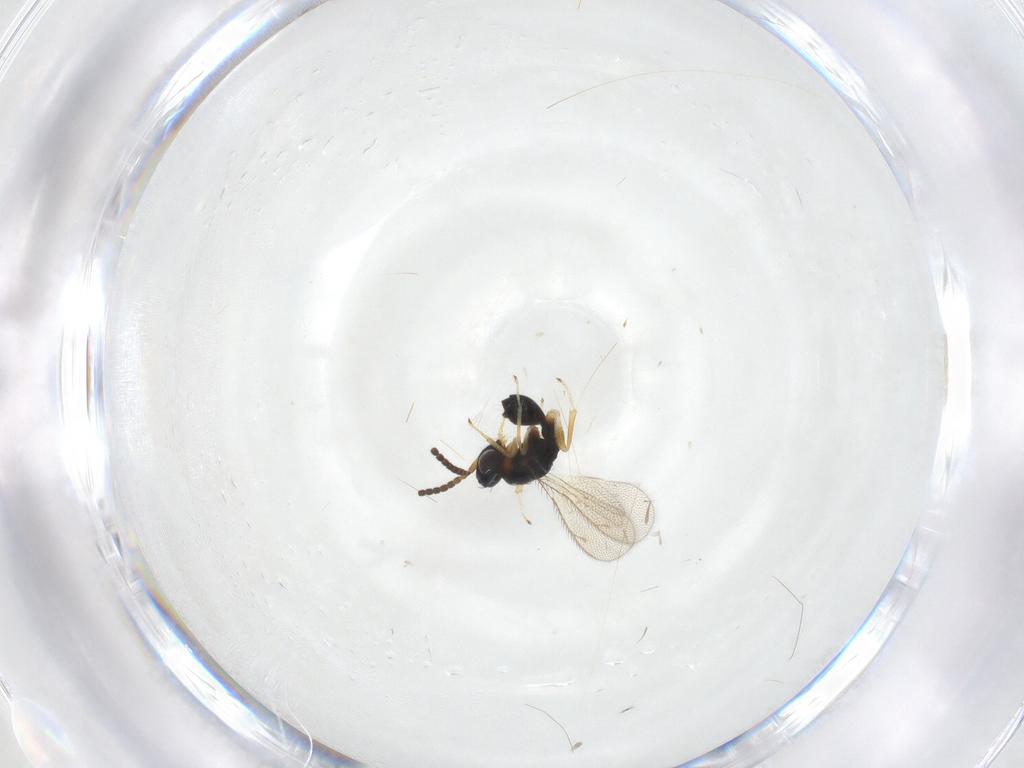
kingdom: Animalia
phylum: Arthropoda
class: Insecta
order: Hymenoptera
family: Diparidae
